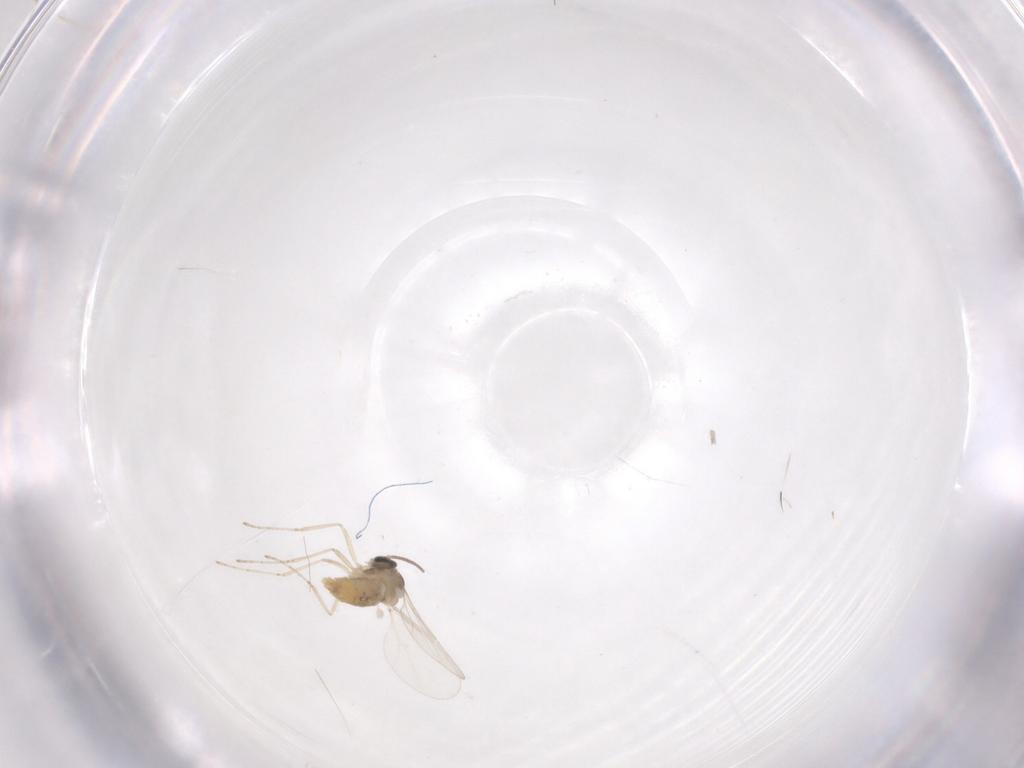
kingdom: Animalia
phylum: Arthropoda
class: Insecta
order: Diptera
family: Cecidomyiidae
